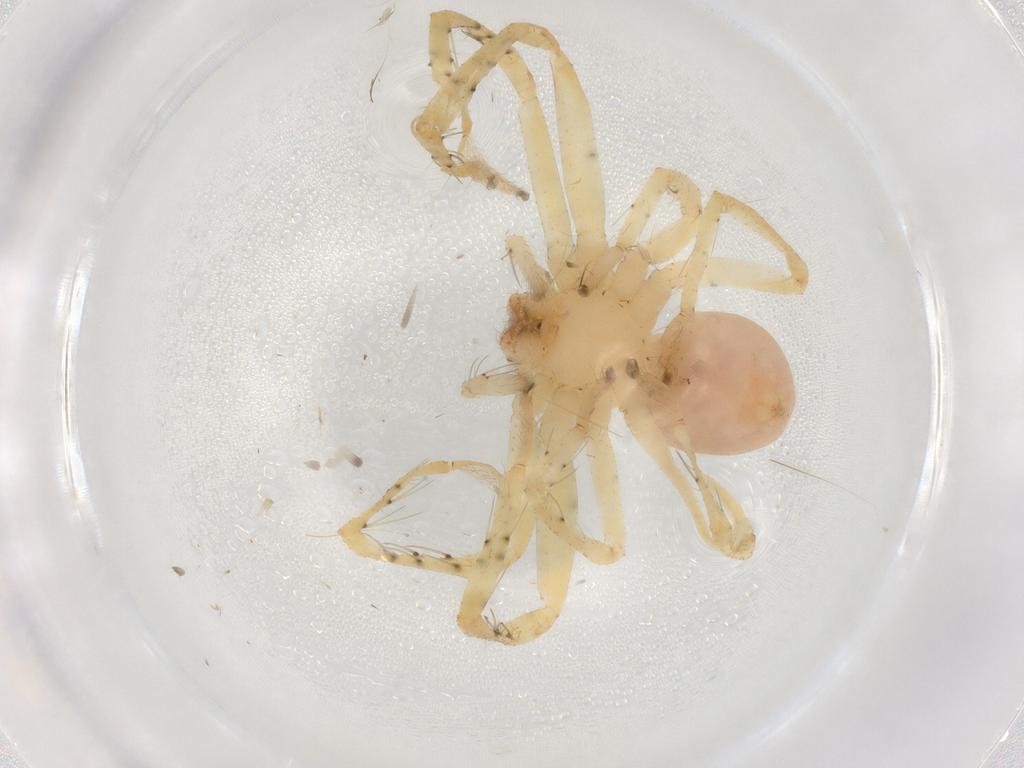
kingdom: Animalia
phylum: Arthropoda
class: Arachnida
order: Araneae
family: Sparassidae
